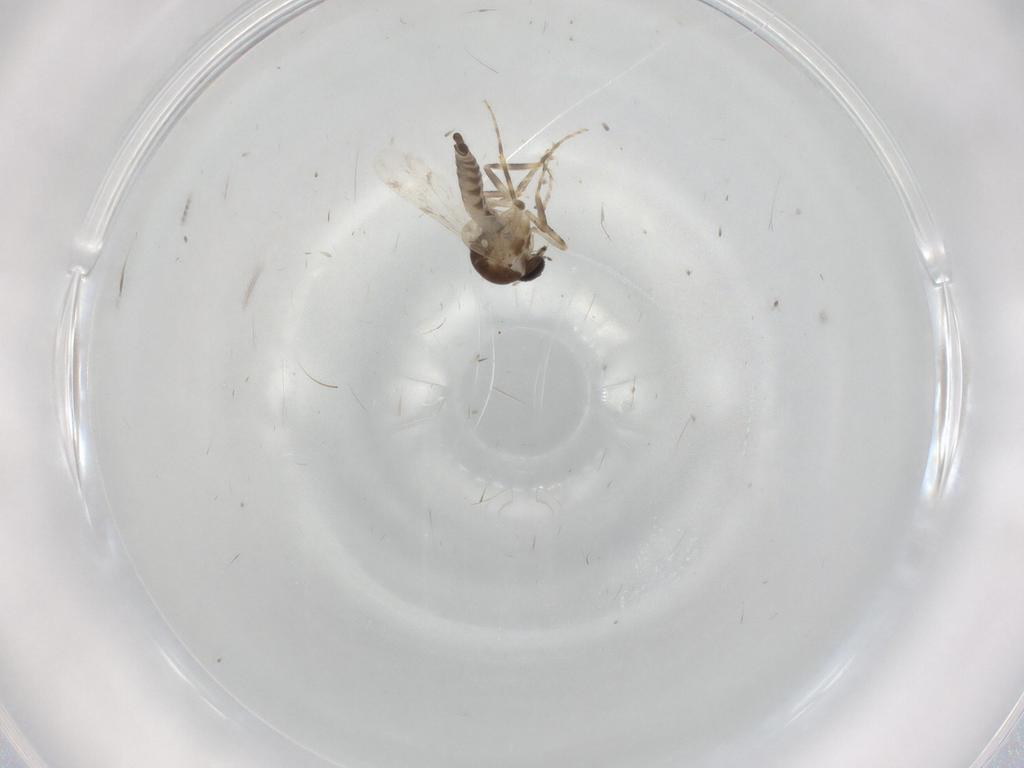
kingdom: Animalia
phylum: Arthropoda
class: Insecta
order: Diptera
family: Ceratopogonidae
